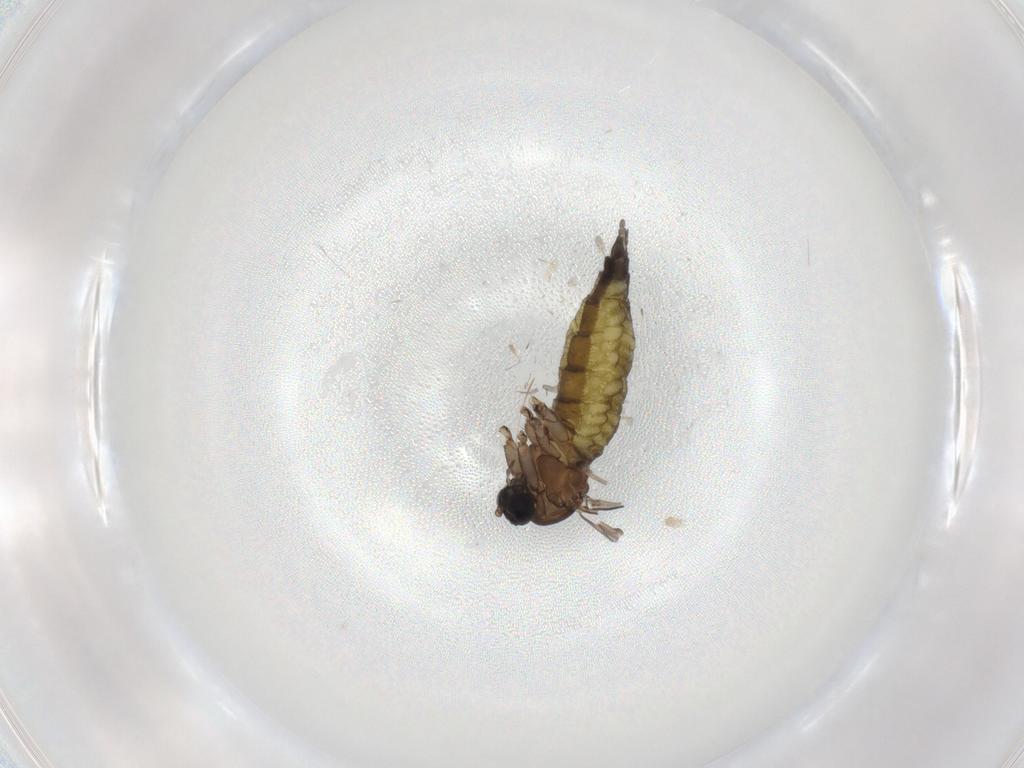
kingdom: Animalia
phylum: Arthropoda
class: Insecta
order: Diptera
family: Sciaridae
